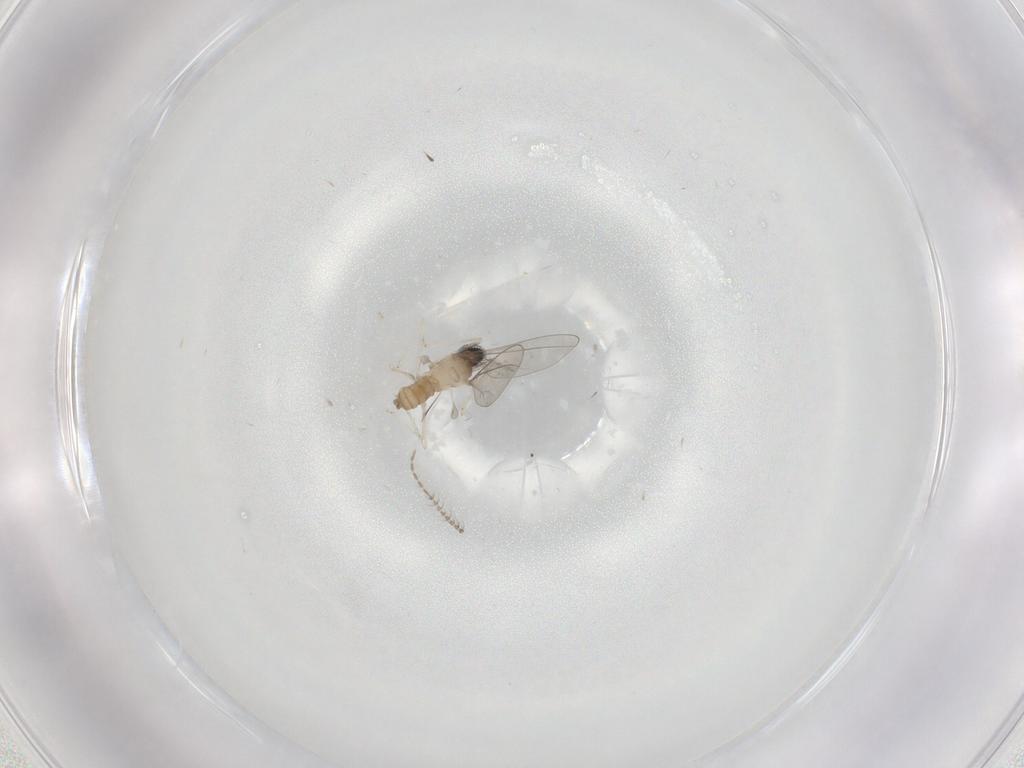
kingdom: Animalia
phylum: Arthropoda
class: Insecta
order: Diptera
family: Cecidomyiidae
